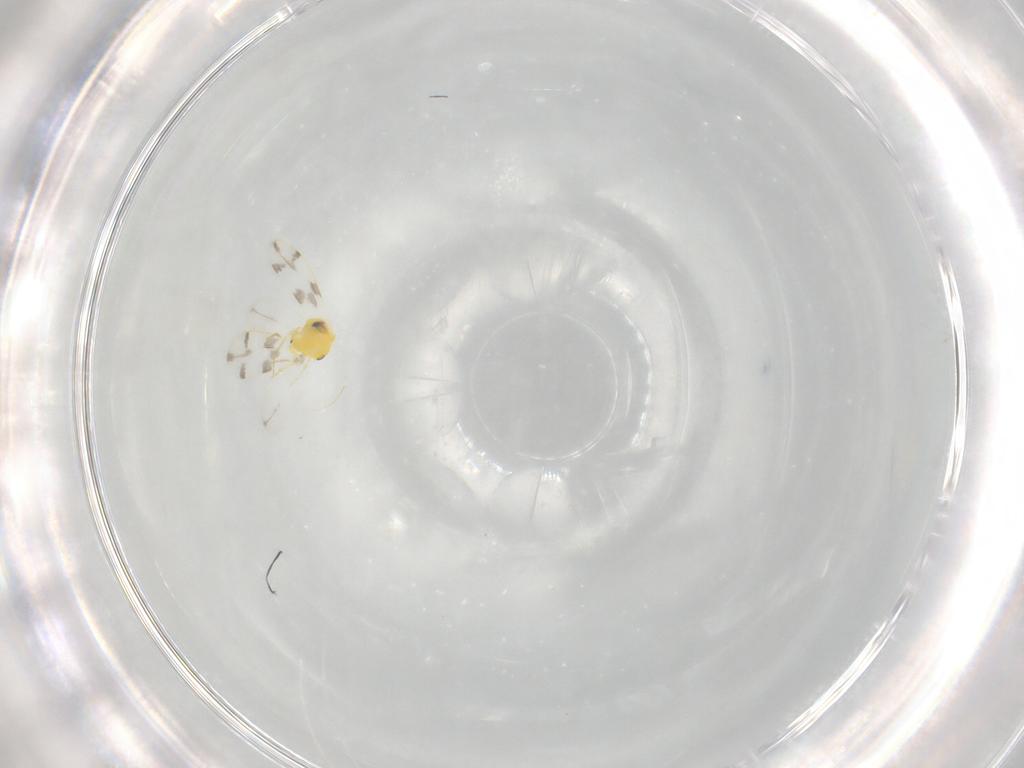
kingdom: Animalia
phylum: Arthropoda
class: Insecta
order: Hemiptera
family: Aleyrodidae
